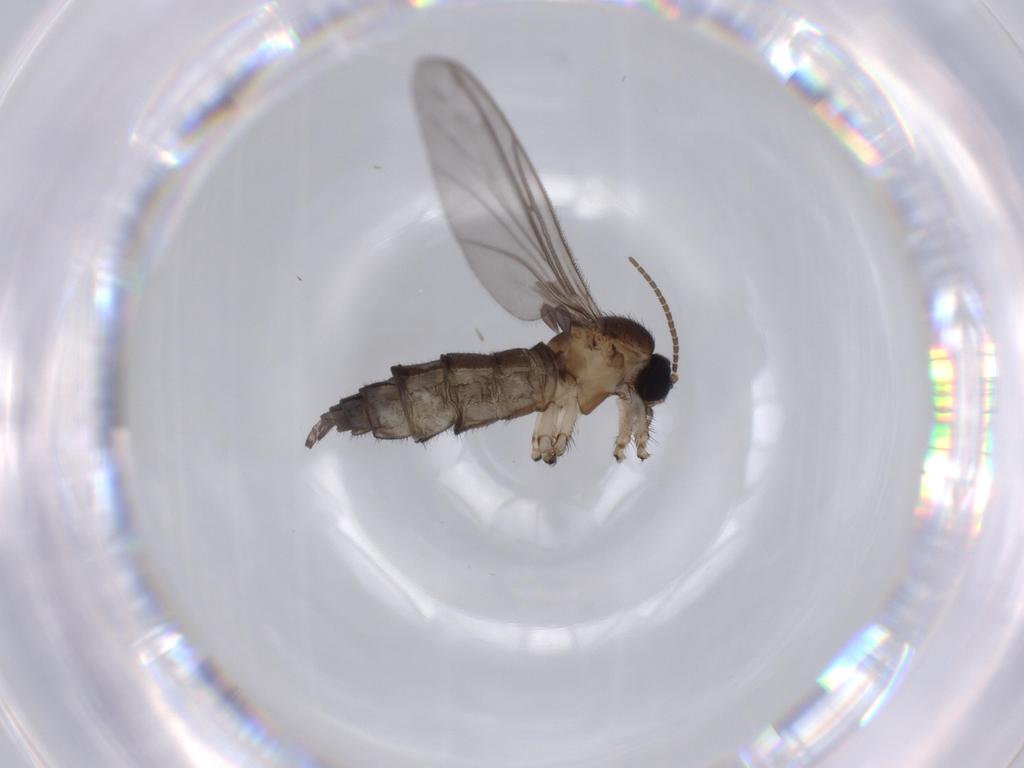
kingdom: Animalia
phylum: Arthropoda
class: Insecta
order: Diptera
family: Sciaridae
